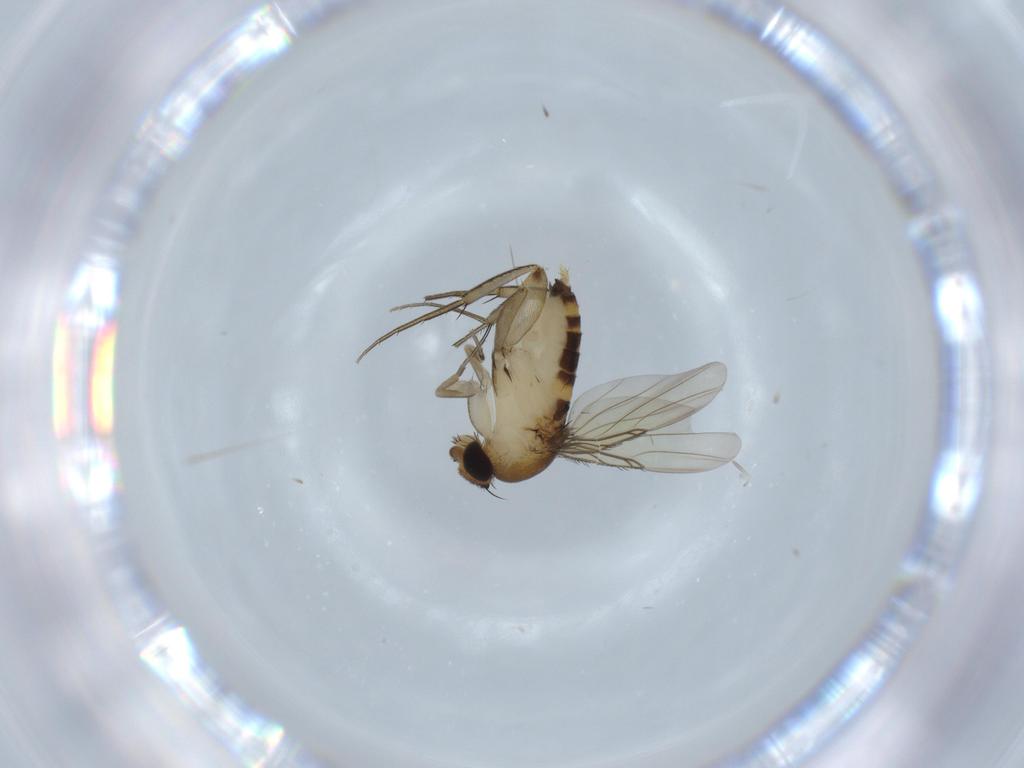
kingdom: Animalia
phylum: Arthropoda
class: Insecta
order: Diptera
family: Phoridae
